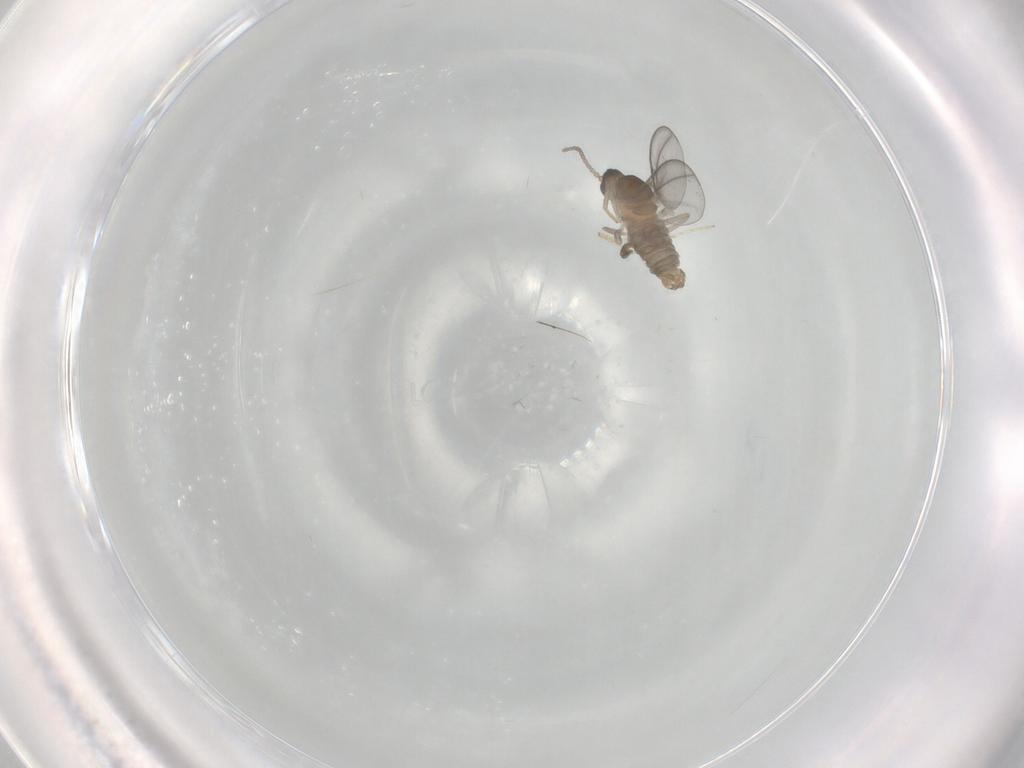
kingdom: Animalia
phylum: Arthropoda
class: Insecta
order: Diptera
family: Cecidomyiidae
